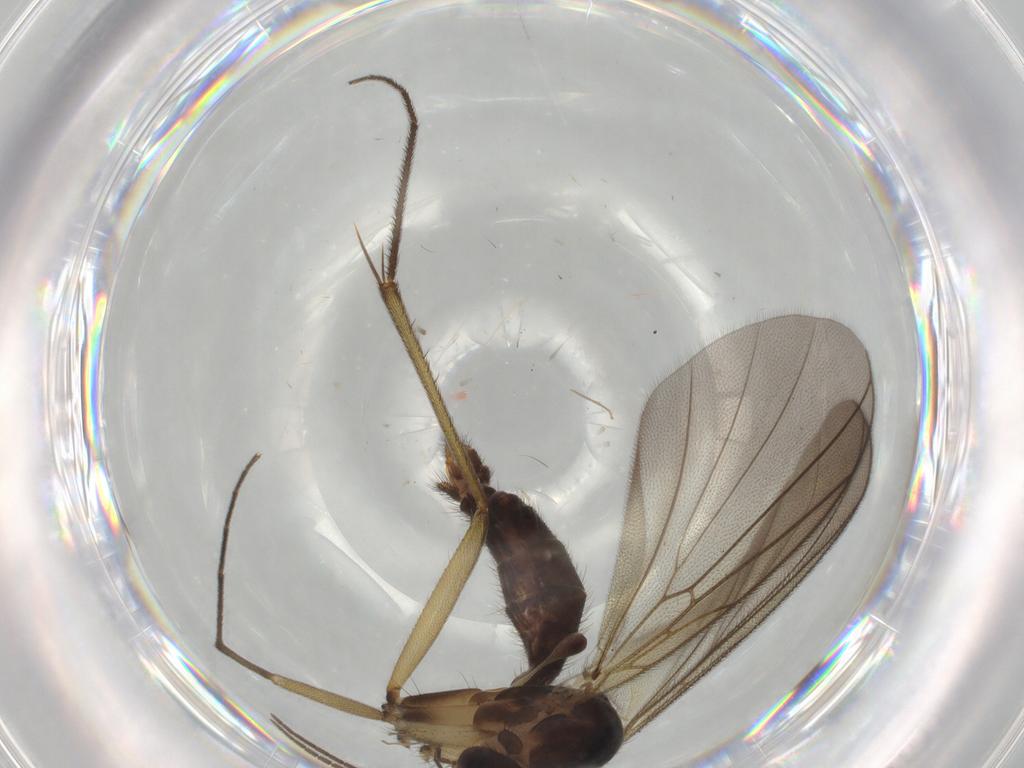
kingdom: Animalia
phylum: Arthropoda
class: Insecta
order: Diptera
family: Mycetophilidae
